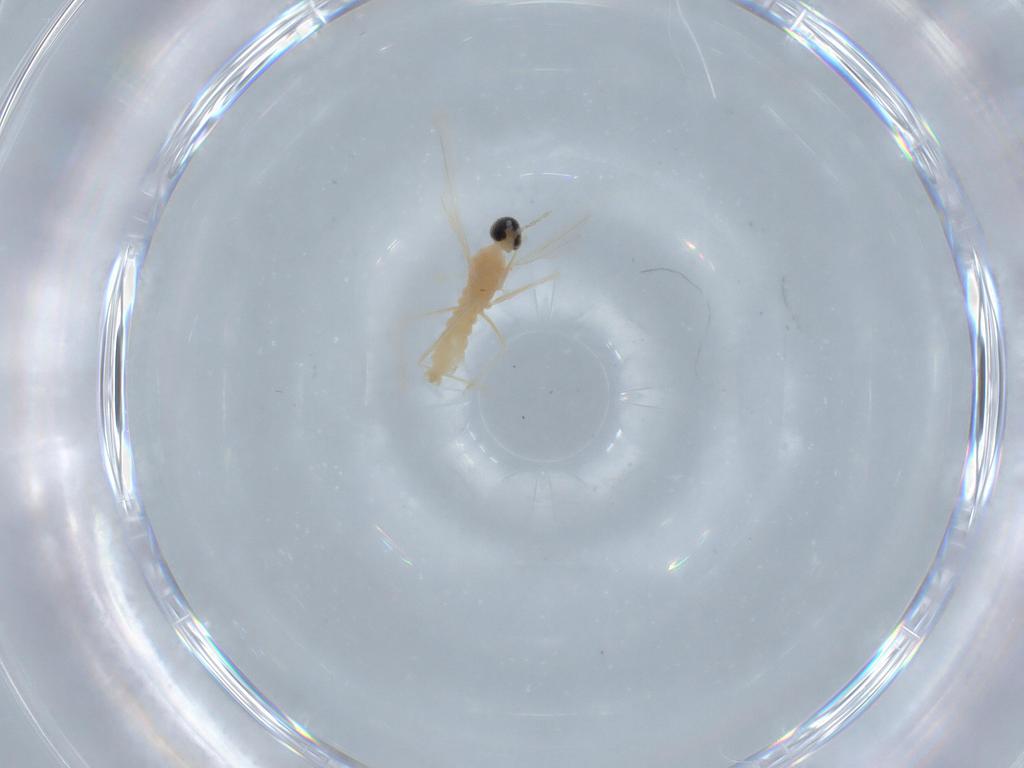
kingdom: Animalia
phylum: Arthropoda
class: Insecta
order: Diptera
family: Cecidomyiidae
